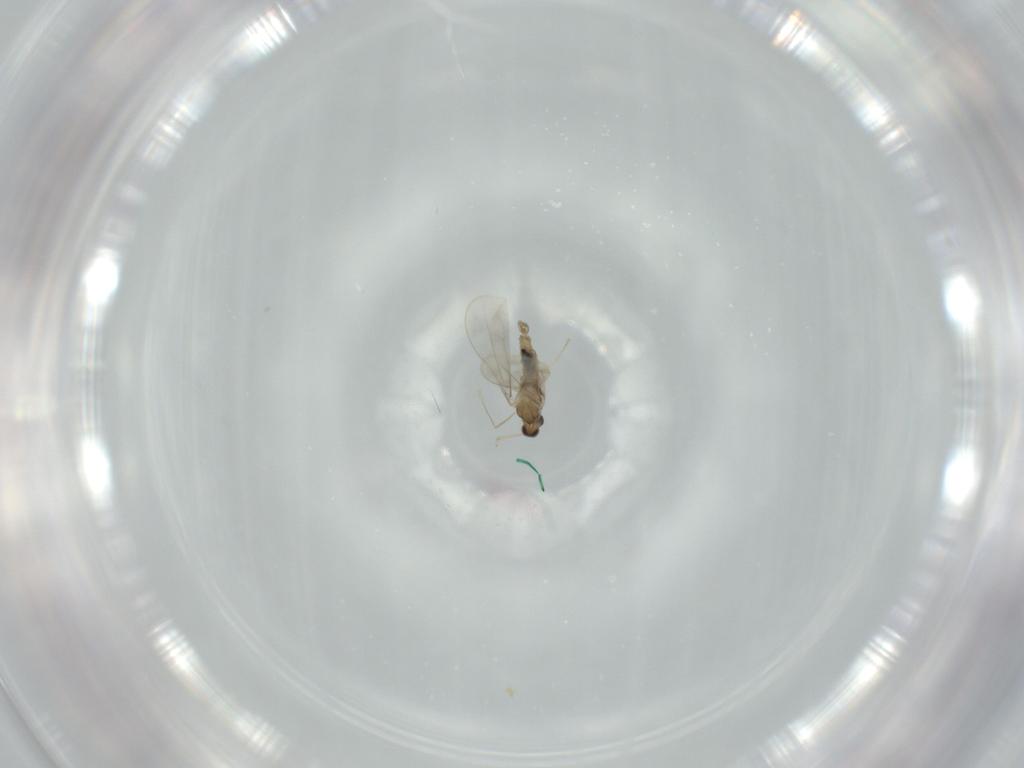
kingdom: Animalia
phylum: Arthropoda
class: Insecta
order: Diptera
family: Cecidomyiidae
